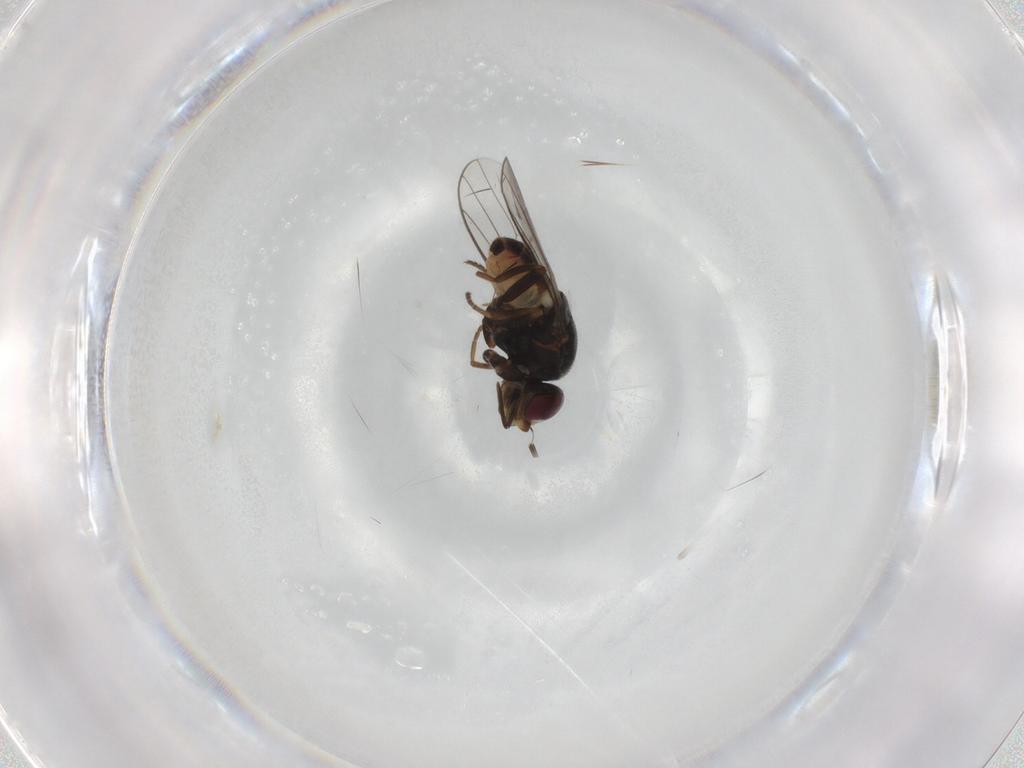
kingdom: Animalia
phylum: Arthropoda
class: Insecta
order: Diptera
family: Chloropidae
